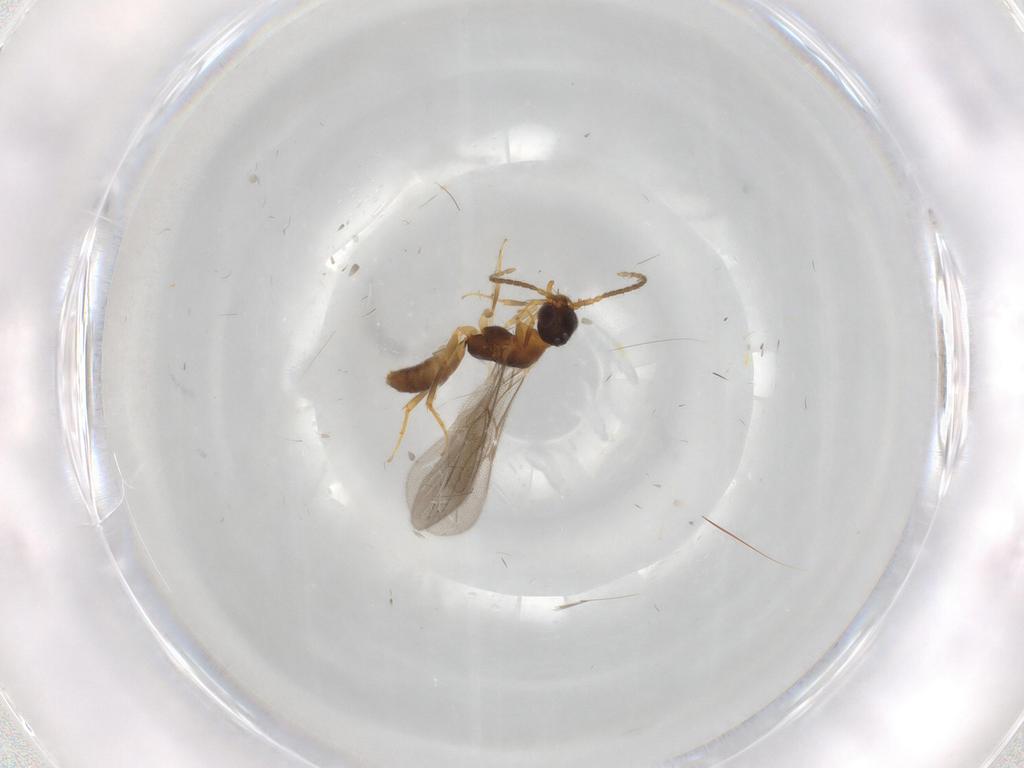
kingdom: Animalia
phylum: Arthropoda
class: Insecta
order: Hymenoptera
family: Bethylidae
